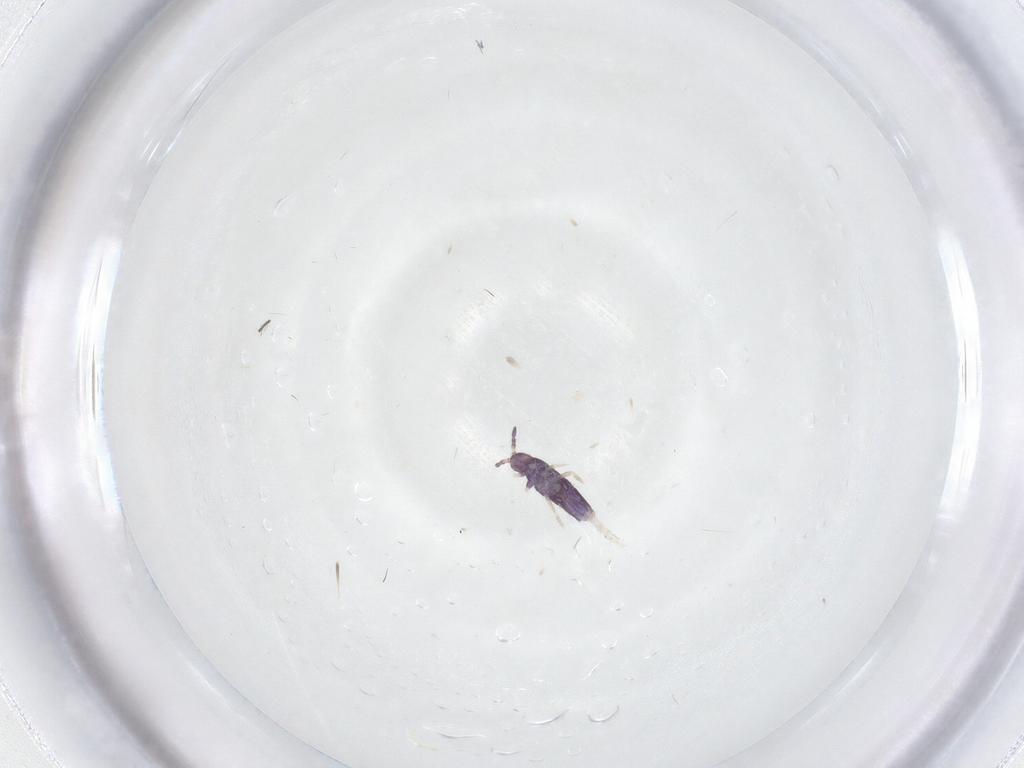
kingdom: Animalia
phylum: Arthropoda
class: Collembola
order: Entomobryomorpha
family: Entomobryidae
